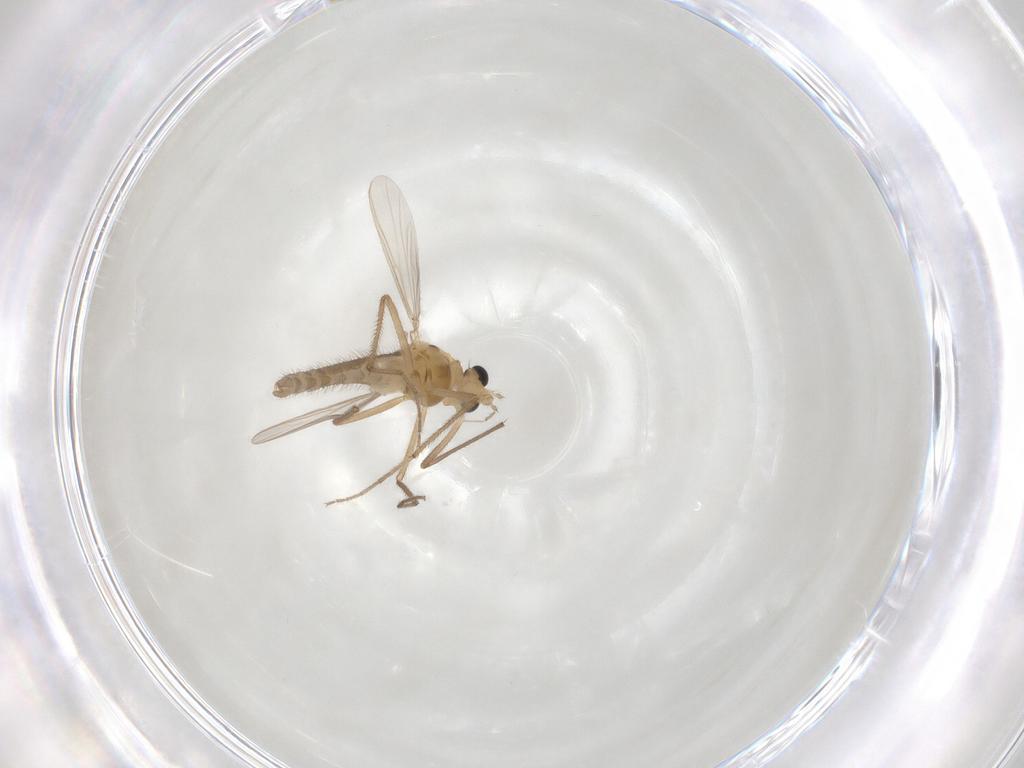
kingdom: Animalia
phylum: Arthropoda
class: Insecta
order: Diptera
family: Chironomidae
